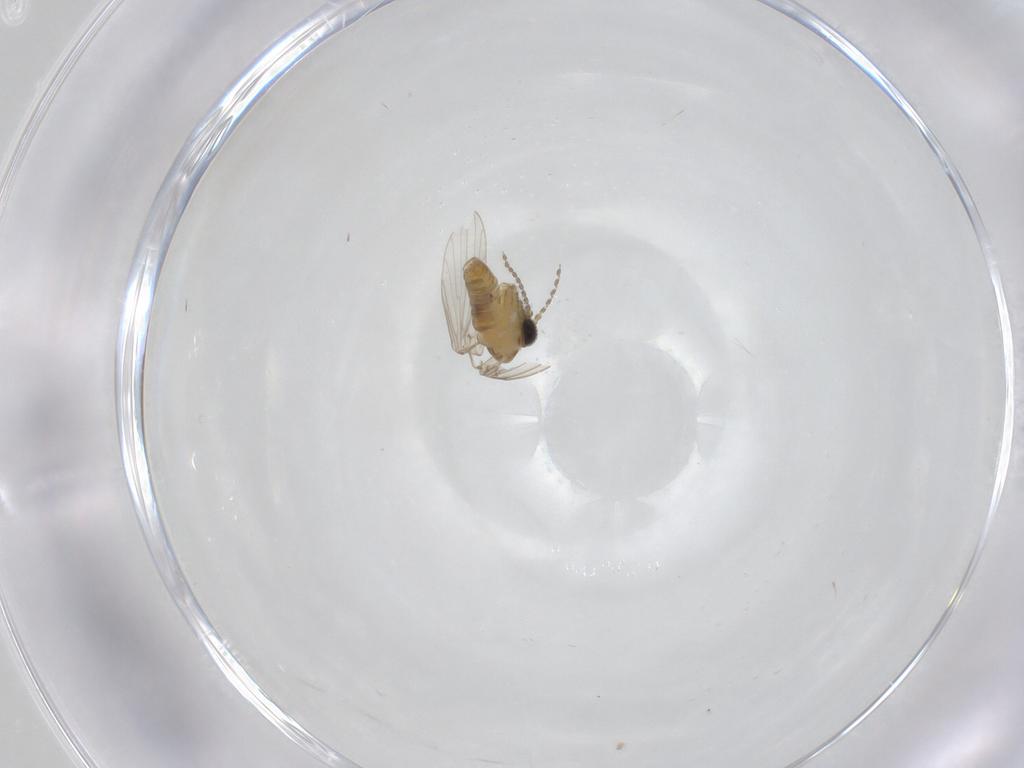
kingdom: Animalia
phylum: Arthropoda
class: Insecta
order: Diptera
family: Psychodidae
